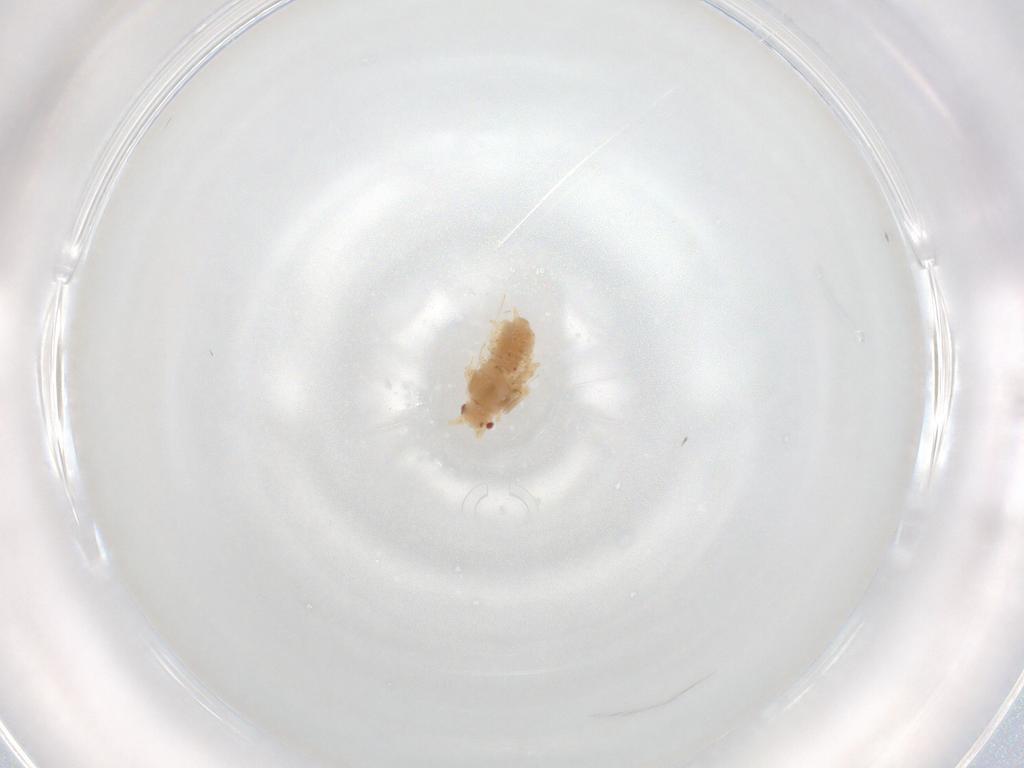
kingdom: Animalia
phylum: Arthropoda
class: Insecta
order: Hemiptera
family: Aphididae
